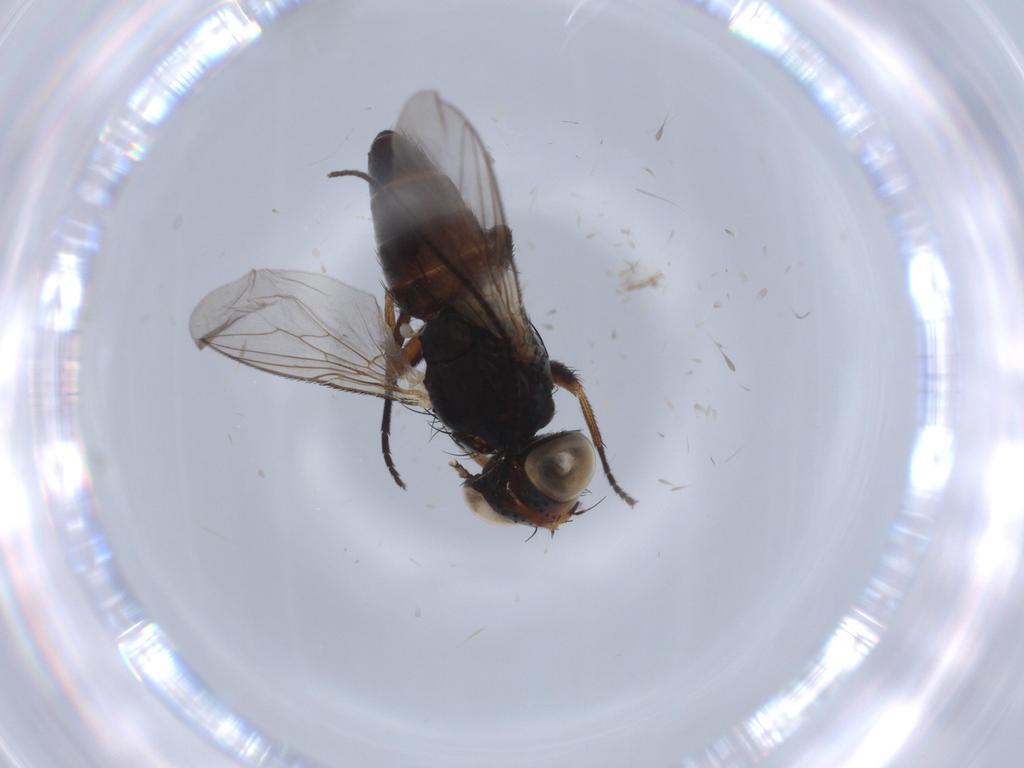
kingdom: Animalia
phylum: Arthropoda
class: Insecta
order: Diptera
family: Sarcophagidae
